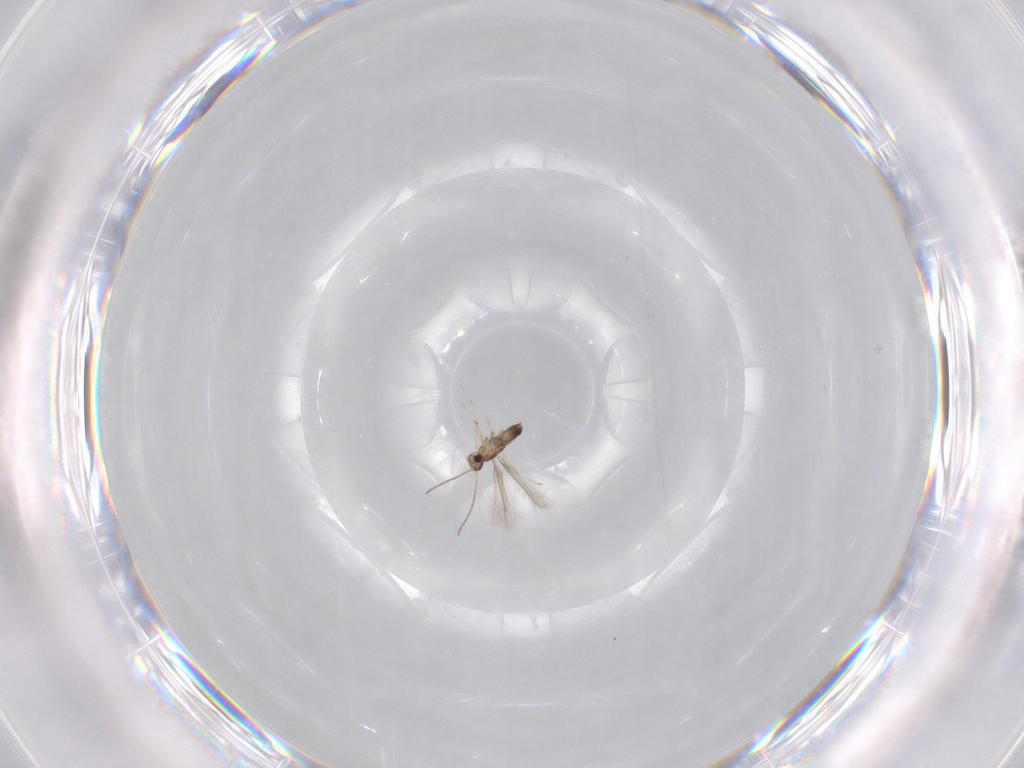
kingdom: Animalia
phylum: Arthropoda
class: Insecta
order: Hymenoptera
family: Mymaridae
